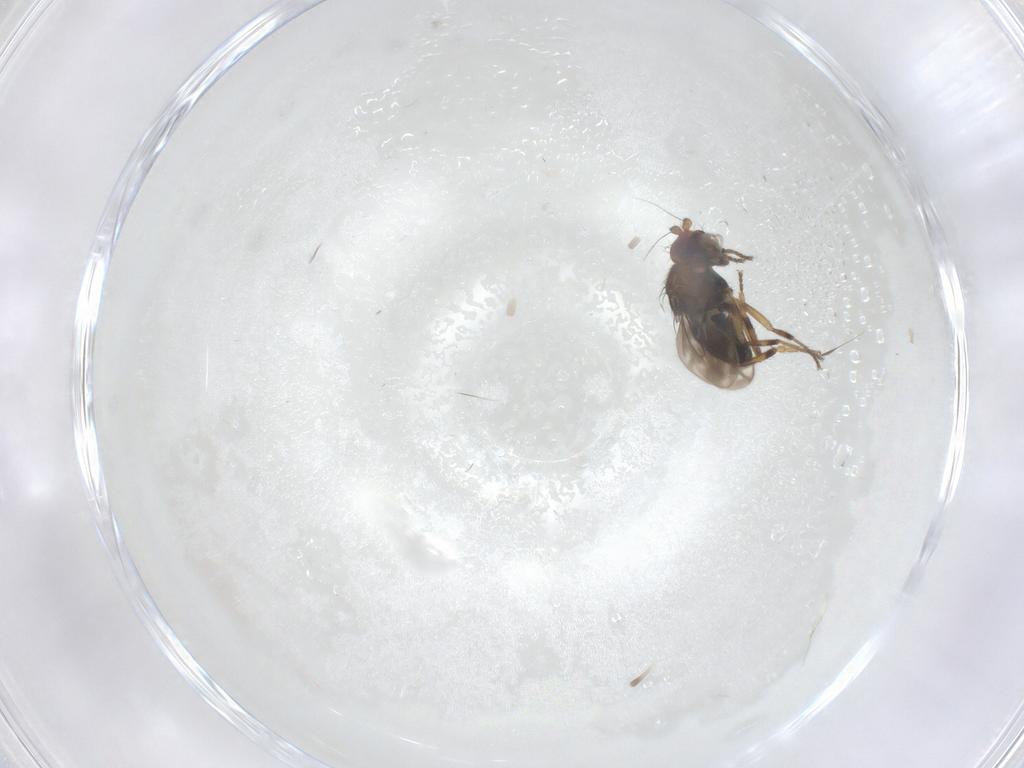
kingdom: Animalia
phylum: Arthropoda
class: Insecta
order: Diptera
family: Sphaeroceridae
